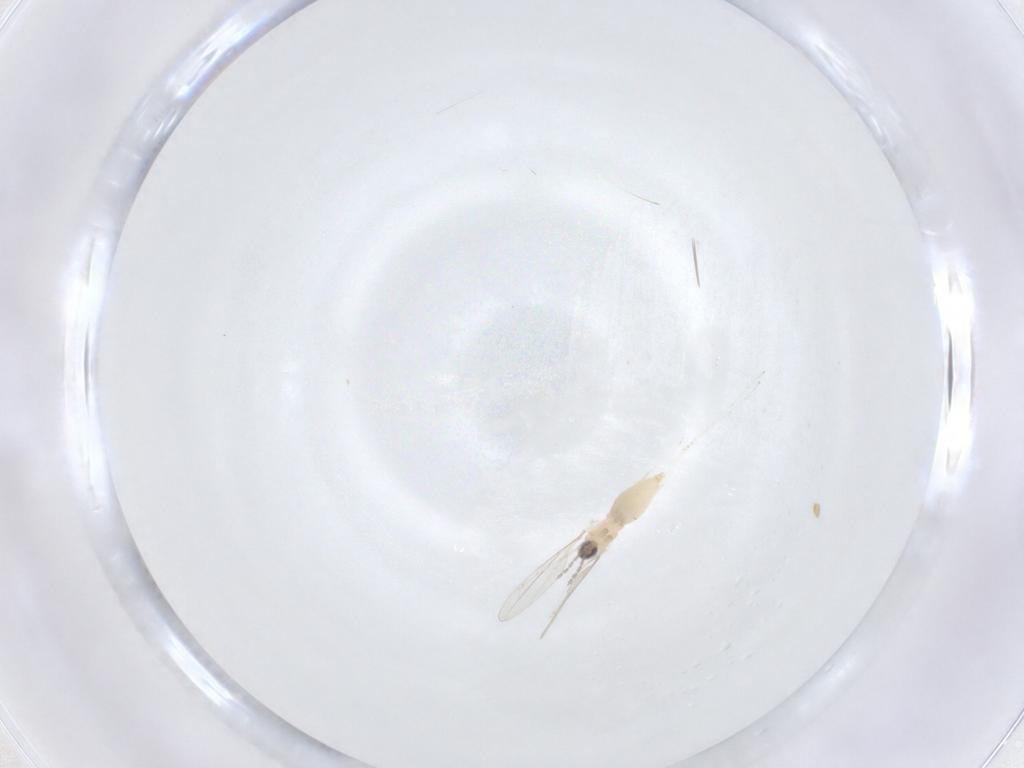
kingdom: Animalia
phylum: Arthropoda
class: Insecta
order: Diptera
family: Cecidomyiidae
